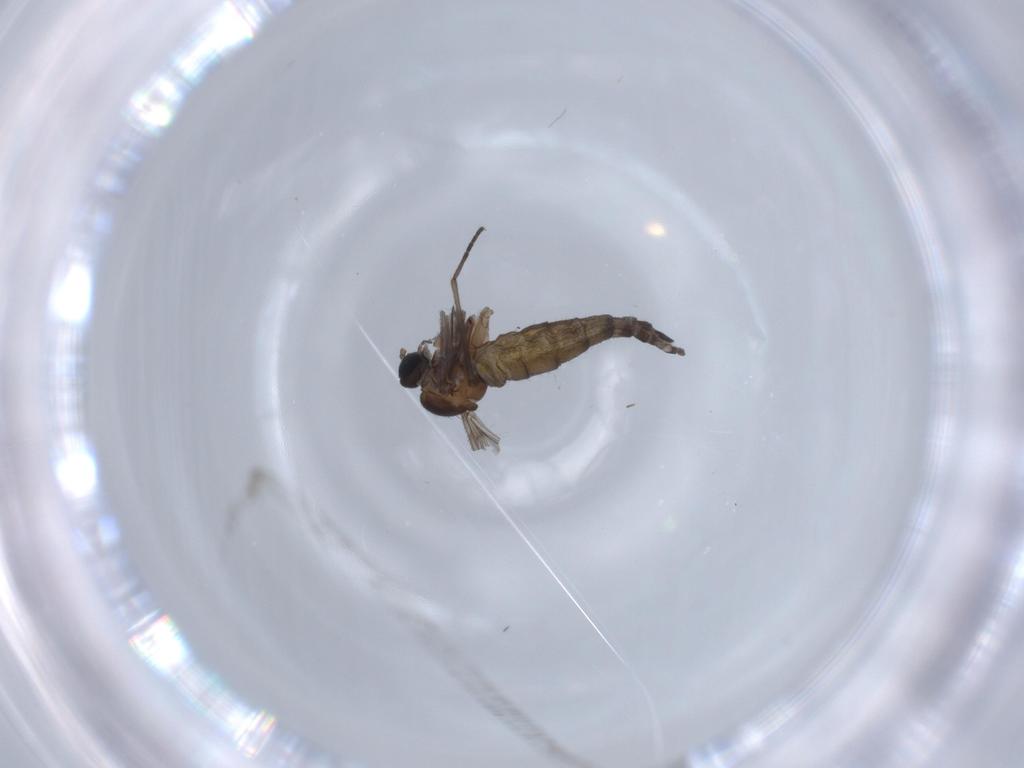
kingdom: Animalia
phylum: Arthropoda
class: Insecta
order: Diptera
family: Sciaridae
